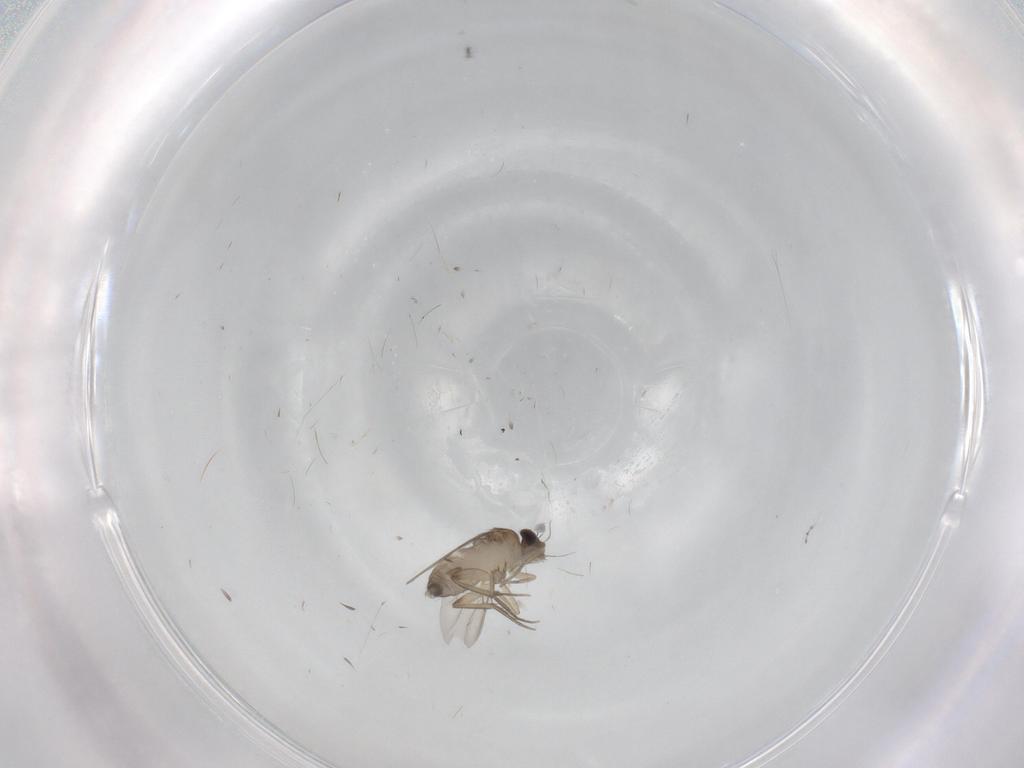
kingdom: Animalia
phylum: Arthropoda
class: Insecta
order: Diptera
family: Phoridae
